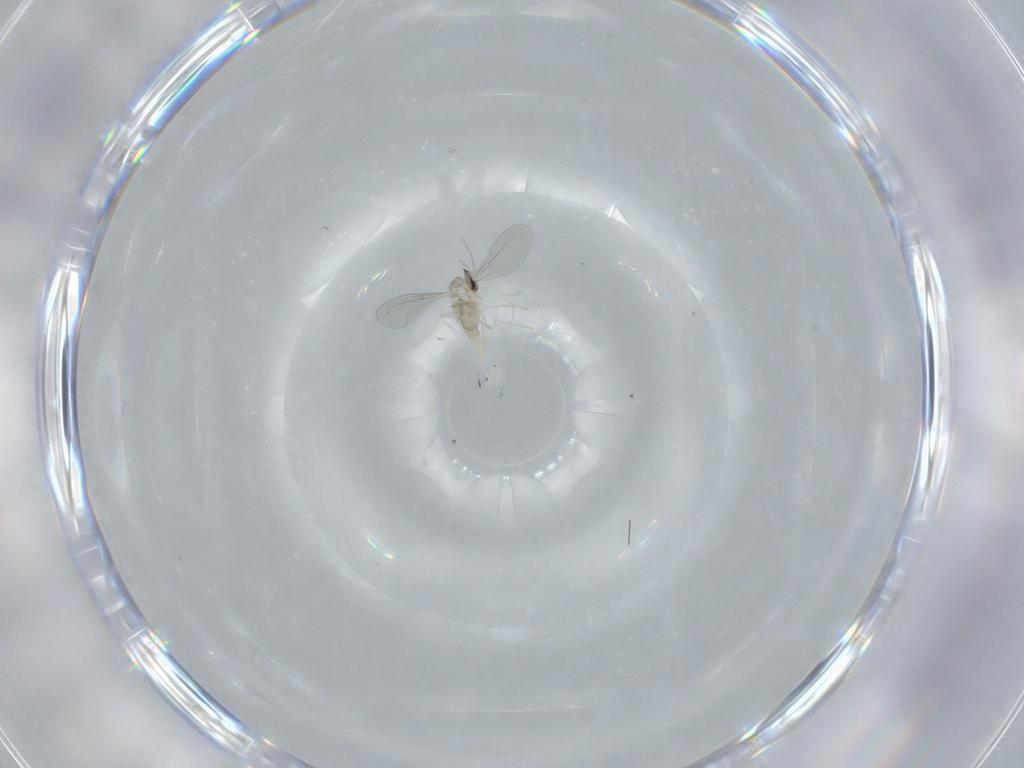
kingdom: Animalia
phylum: Arthropoda
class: Insecta
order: Diptera
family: Cecidomyiidae
